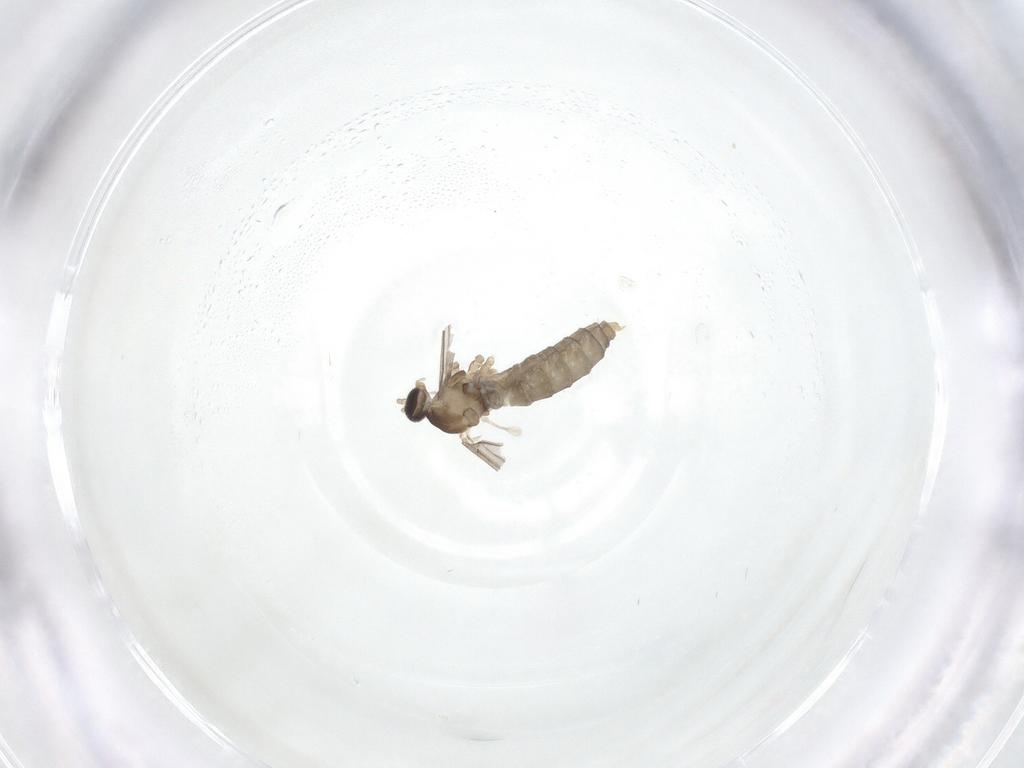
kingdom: Animalia
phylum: Arthropoda
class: Insecta
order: Diptera
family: Cecidomyiidae
